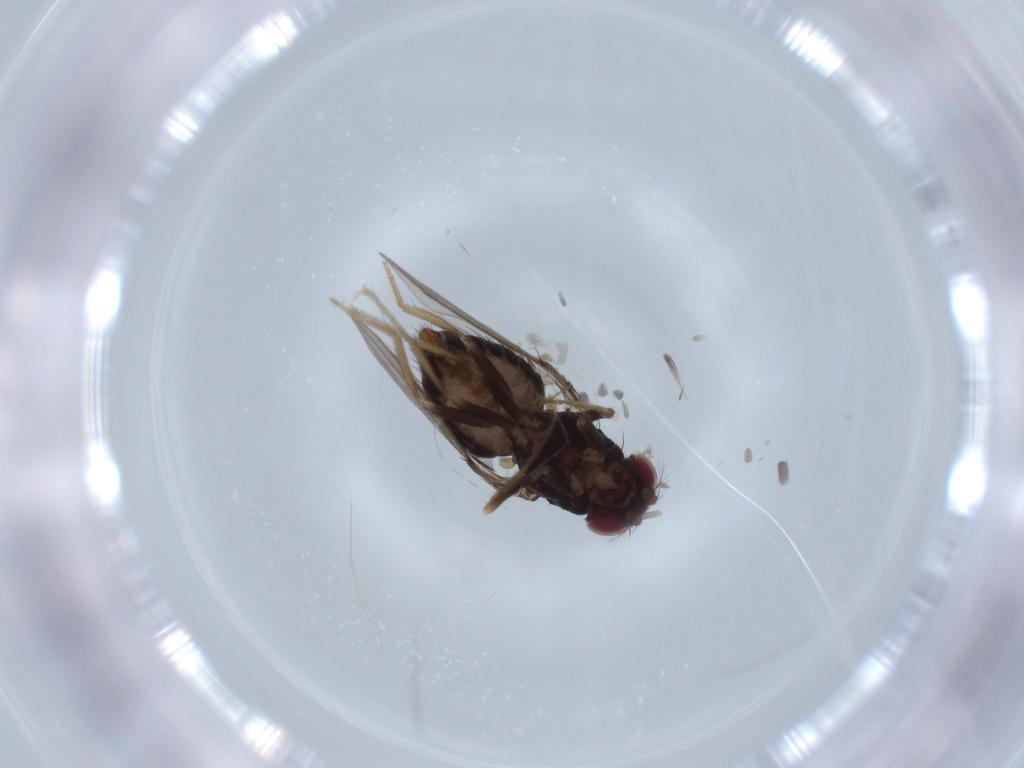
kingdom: Animalia
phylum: Arthropoda
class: Insecta
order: Diptera
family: Drosophilidae
